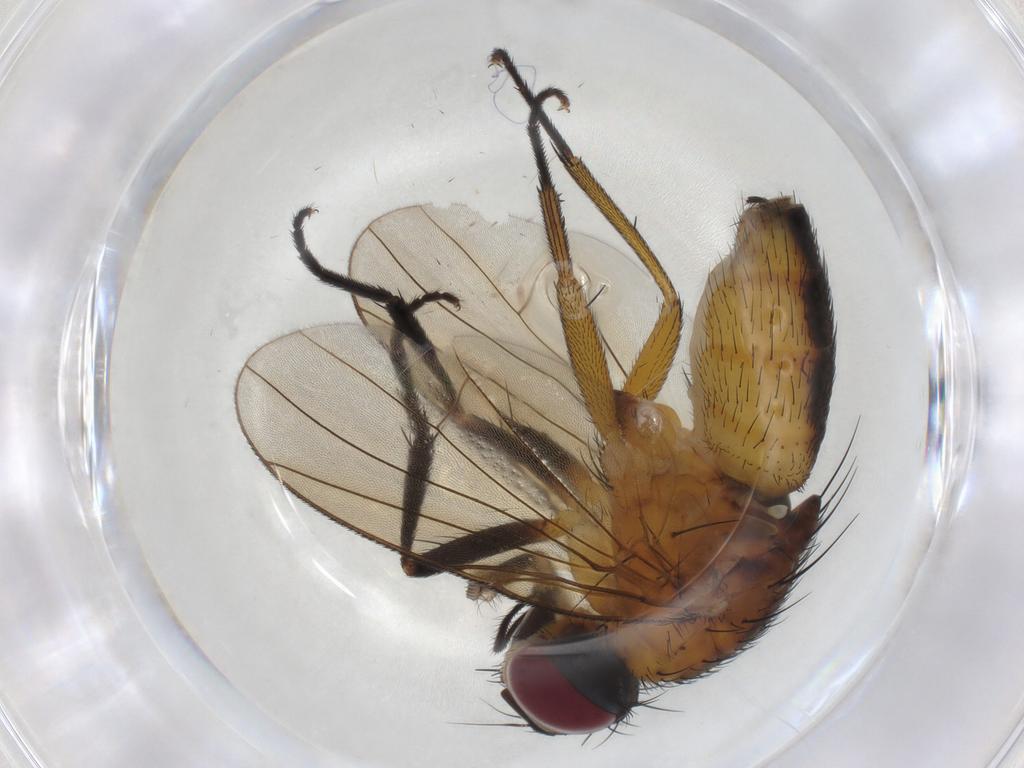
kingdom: Animalia
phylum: Arthropoda
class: Insecta
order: Diptera
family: Muscidae
